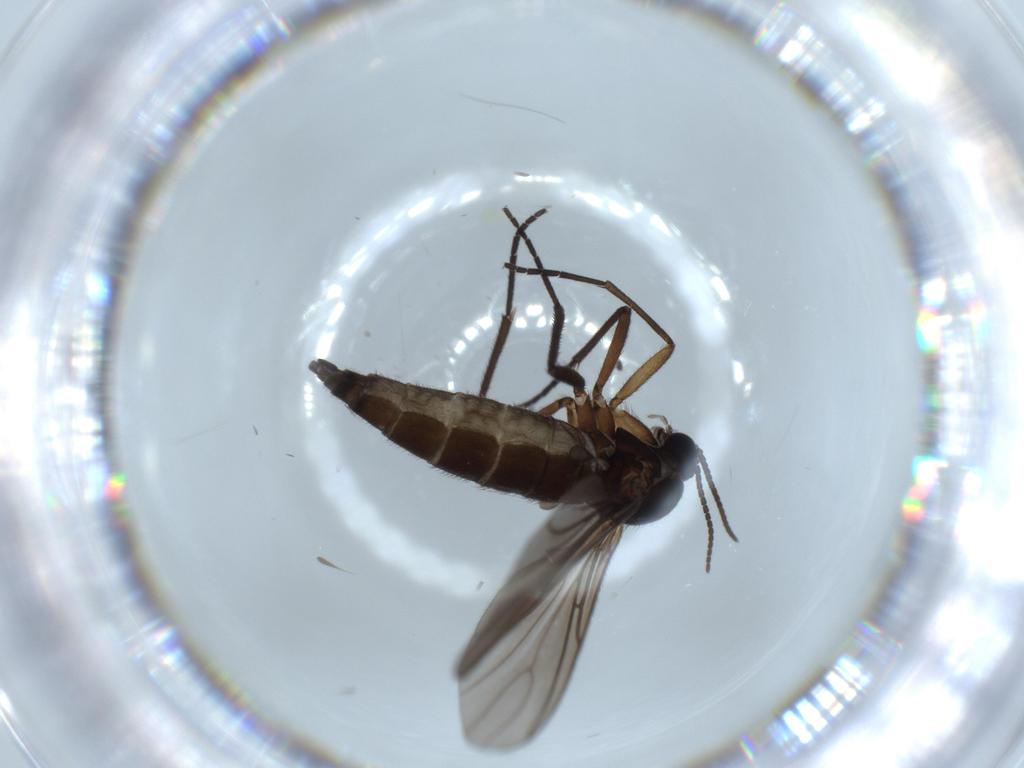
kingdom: Animalia
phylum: Arthropoda
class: Insecta
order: Diptera
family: Sciaridae
